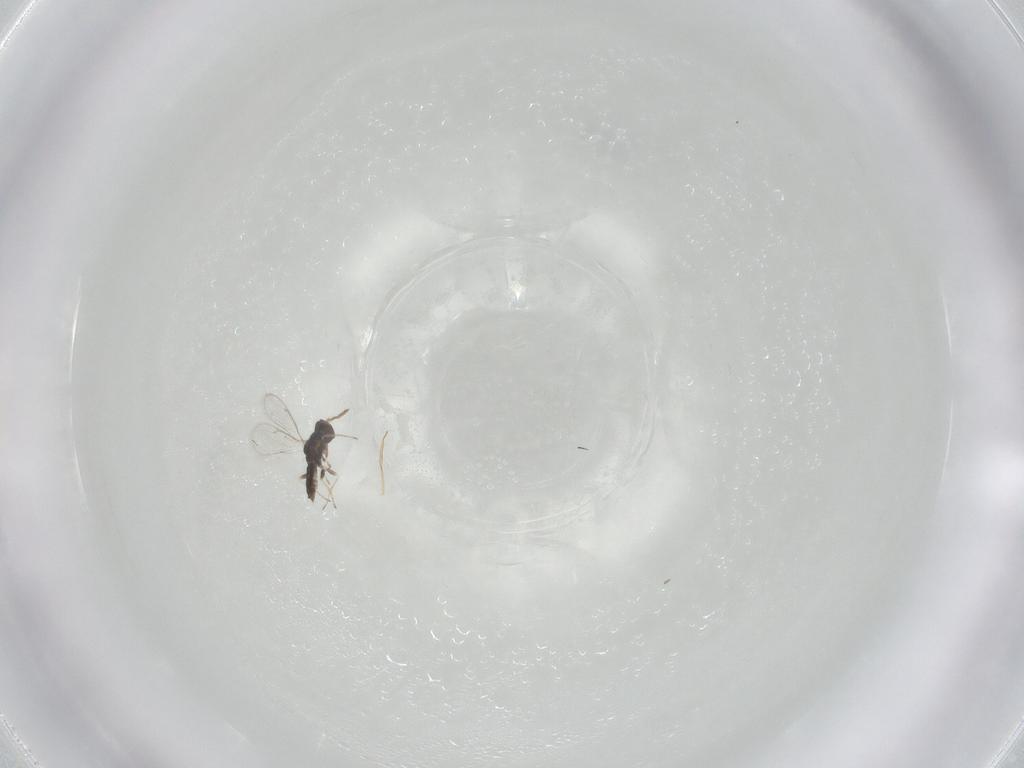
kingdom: Animalia
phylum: Arthropoda
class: Insecta
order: Hymenoptera
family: Eulophidae
